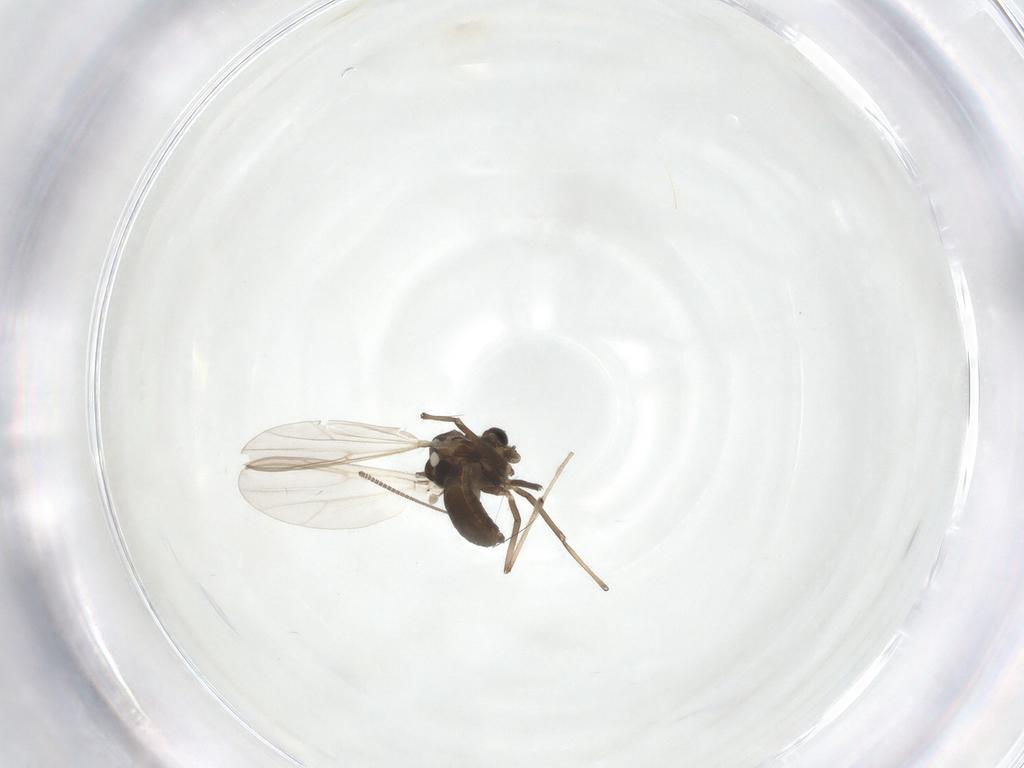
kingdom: Animalia
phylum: Arthropoda
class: Insecta
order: Diptera
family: Chironomidae
